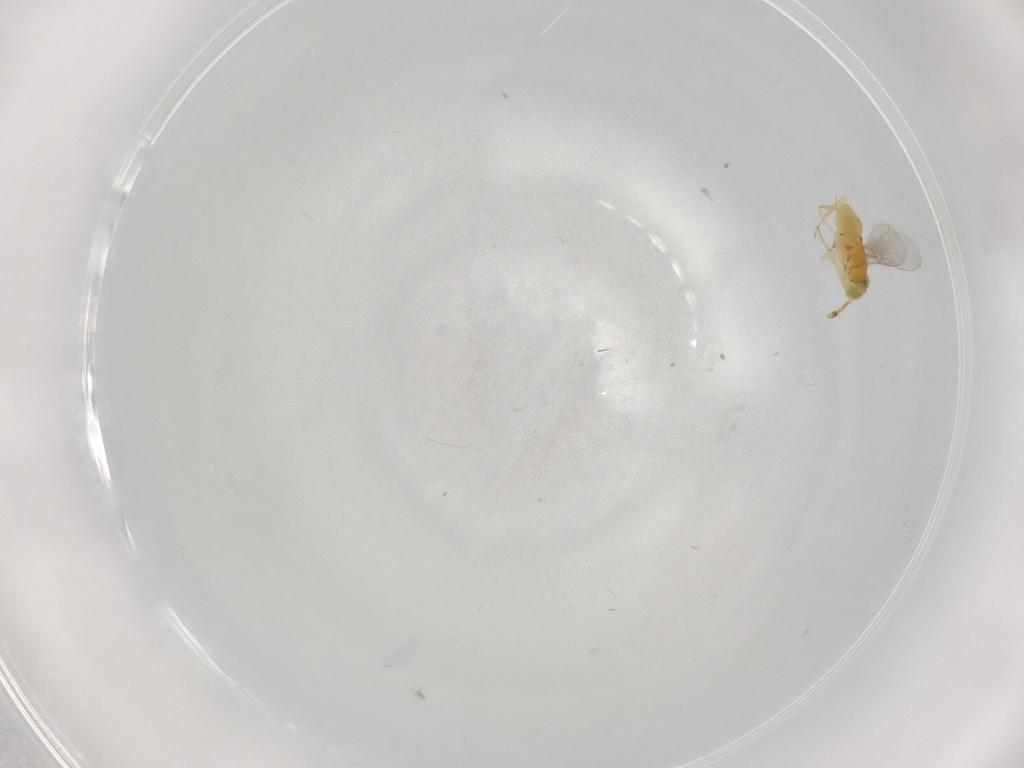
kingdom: Animalia
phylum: Arthropoda
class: Insecta
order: Hymenoptera
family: Encyrtidae
